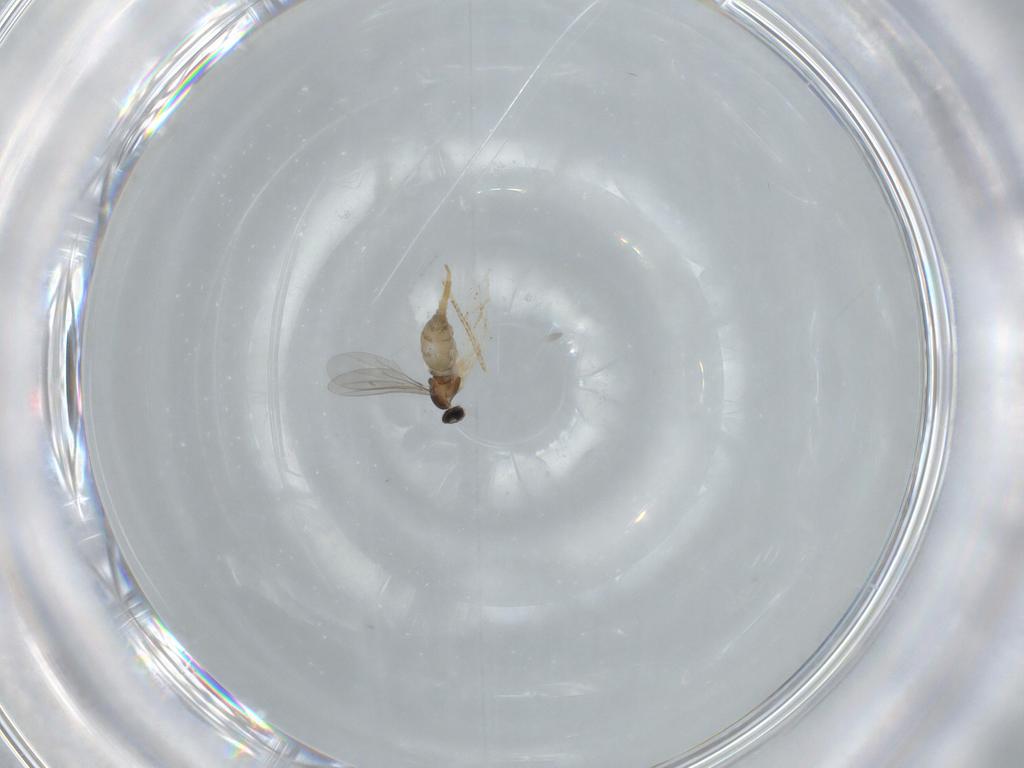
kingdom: Animalia
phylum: Arthropoda
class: Insecta
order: Diptera
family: Cecidomyiidae
